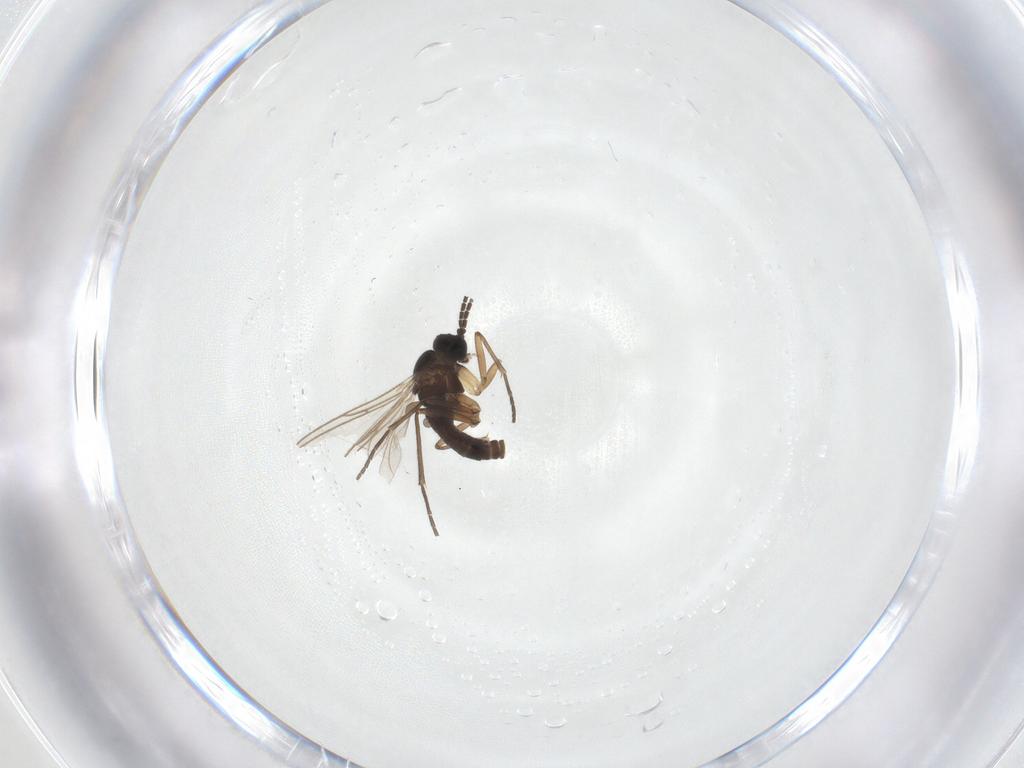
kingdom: Animalia
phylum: Arthropoda
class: Insecta
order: Diptera
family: Sciaridae
